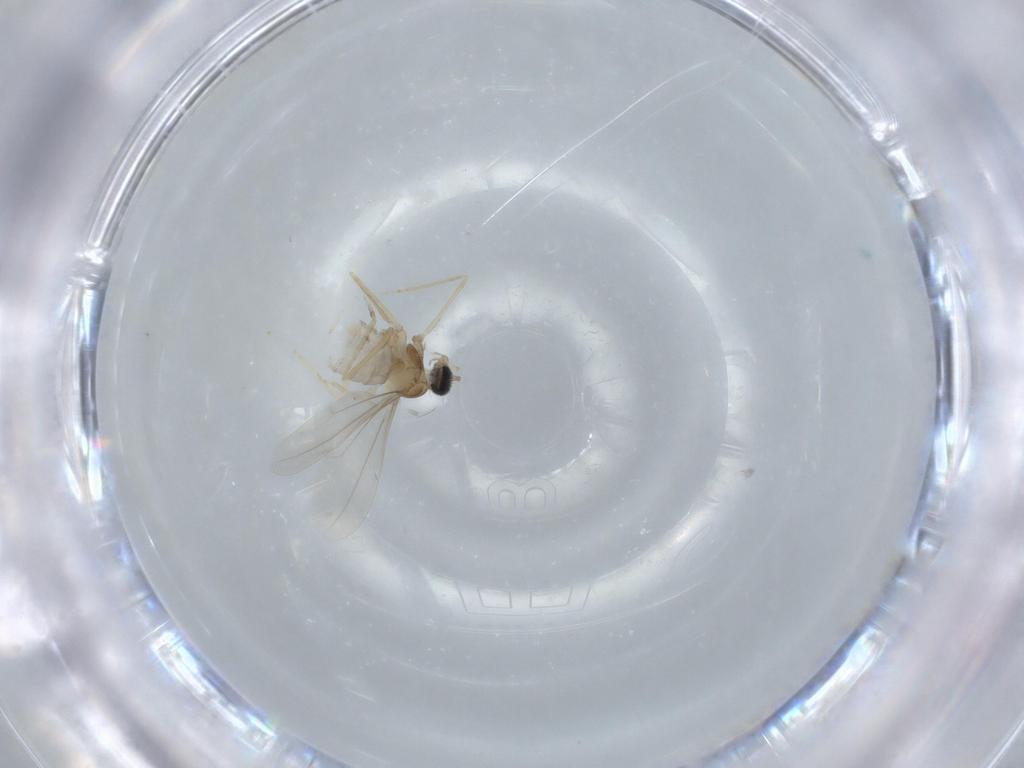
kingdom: Animalia
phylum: Arthropoda
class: Insecta
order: Diptera
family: Cecidomyiidae
